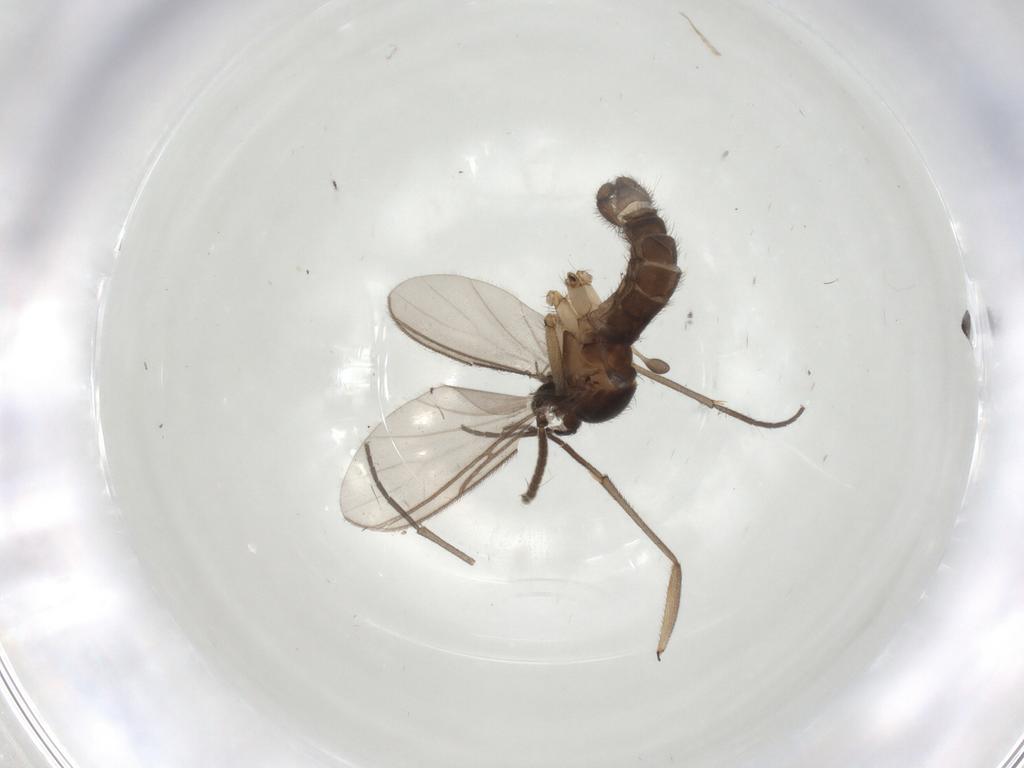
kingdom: Animalia
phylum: Arthropoda
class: Insecta
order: Diptera
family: Sciaridae
